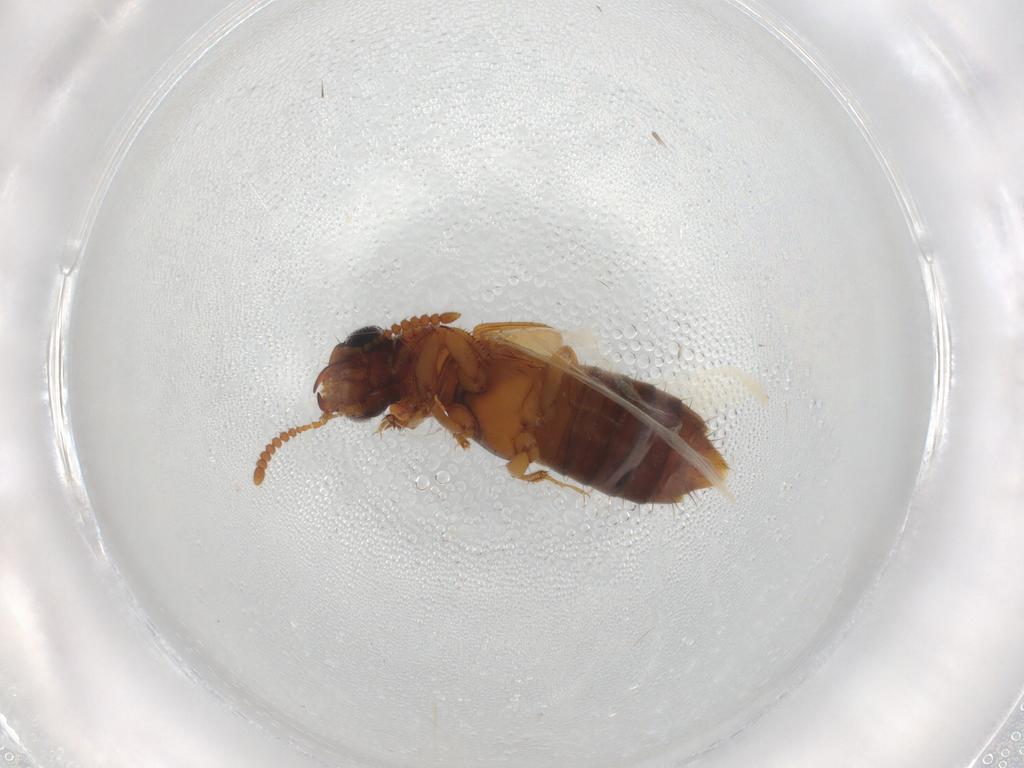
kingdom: Animalia
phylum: Arthropoda
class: Insecta
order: Coleoptera
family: Staphylinidae
